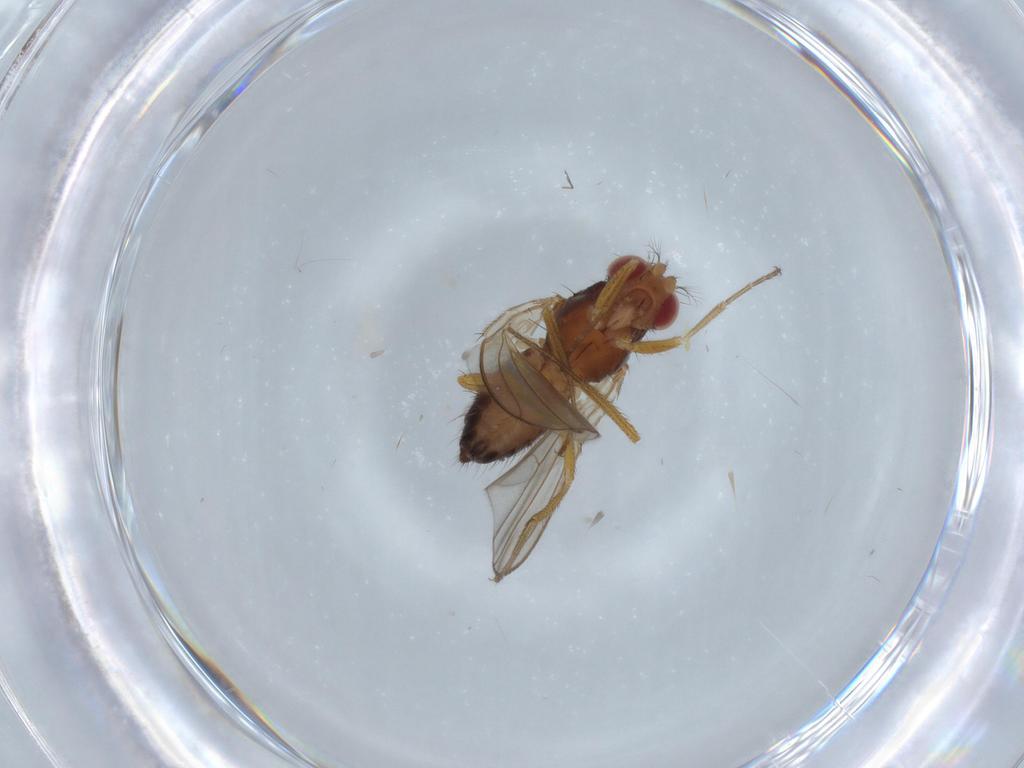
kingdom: Animalia
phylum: Arthropoda
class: Insecta
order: Diptera
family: Drosophilidae
